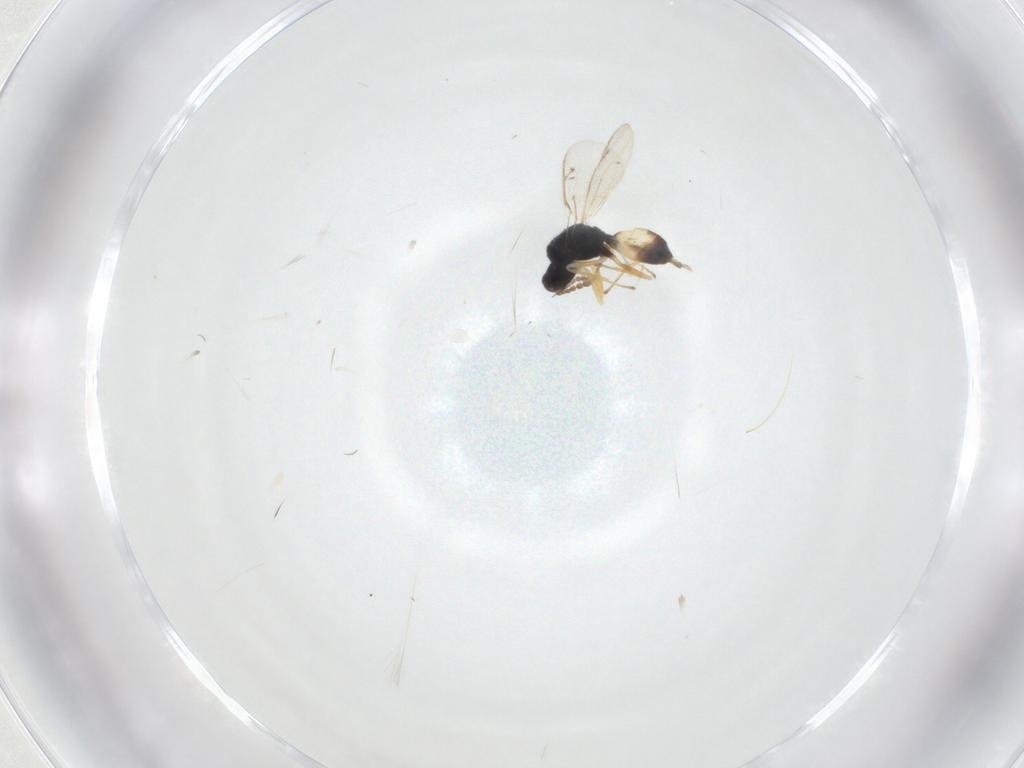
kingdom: Animalia
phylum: Arthropoda
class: Insecta
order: Hymenoptera
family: Eulophidae
